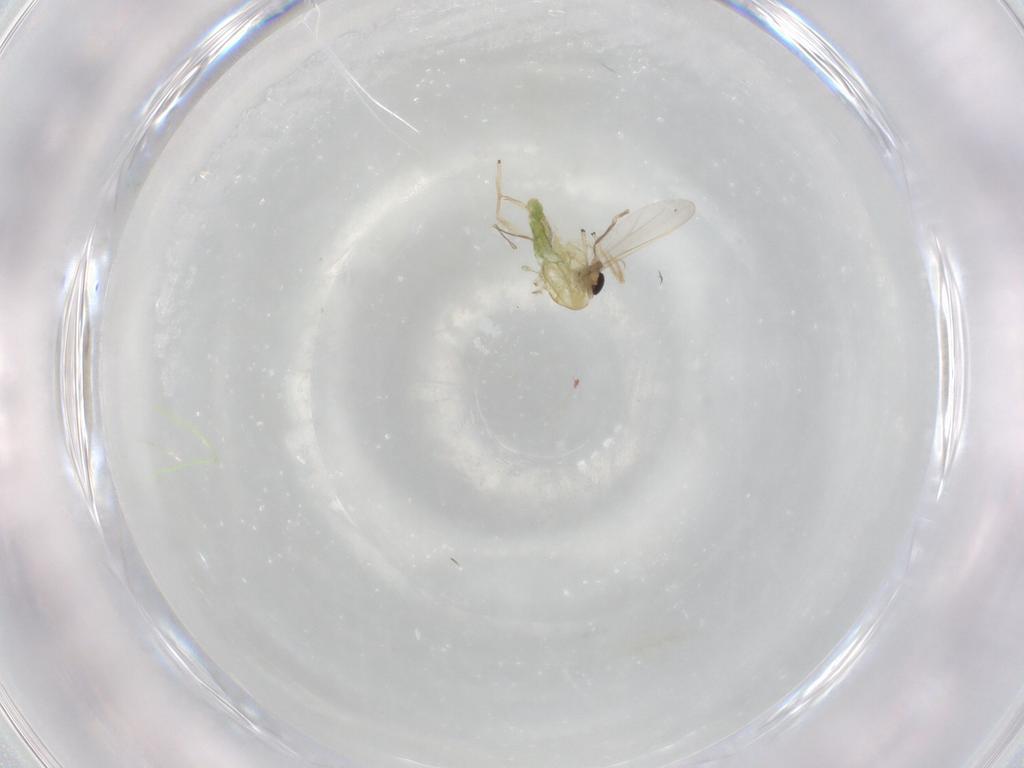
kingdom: Animalia
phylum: Arthropoda
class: Insecta
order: Diptera
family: Chironomidae
